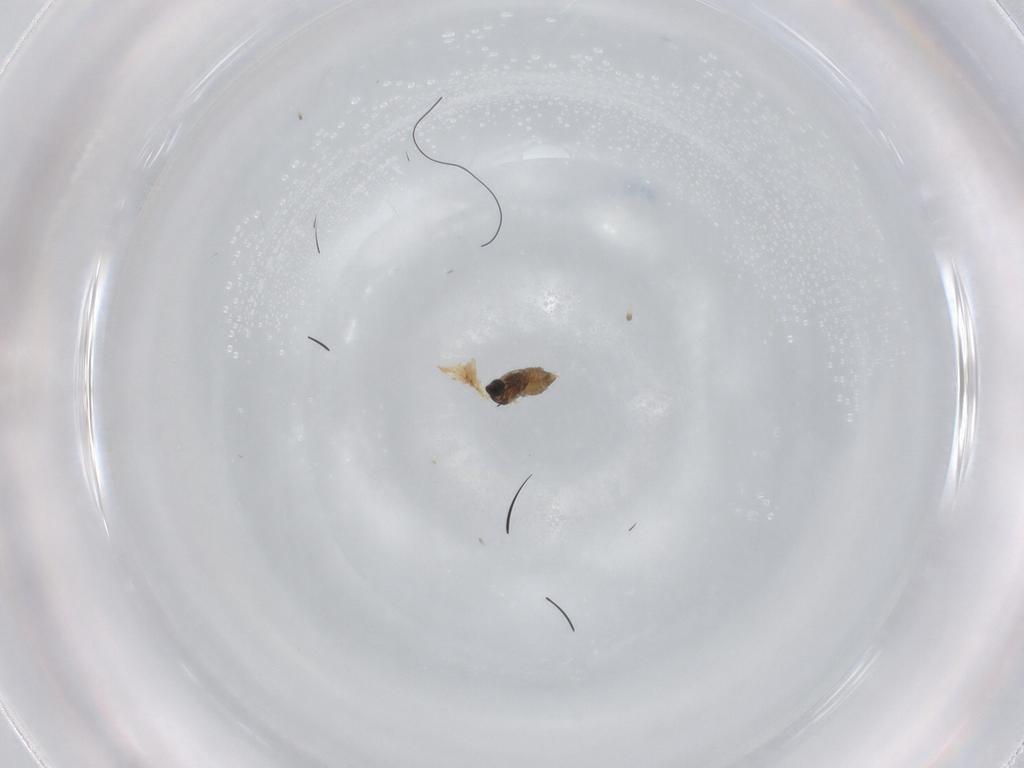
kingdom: Animalia
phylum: Arthropoda
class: Insecta
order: Diptera
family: Cecidomyiidae
